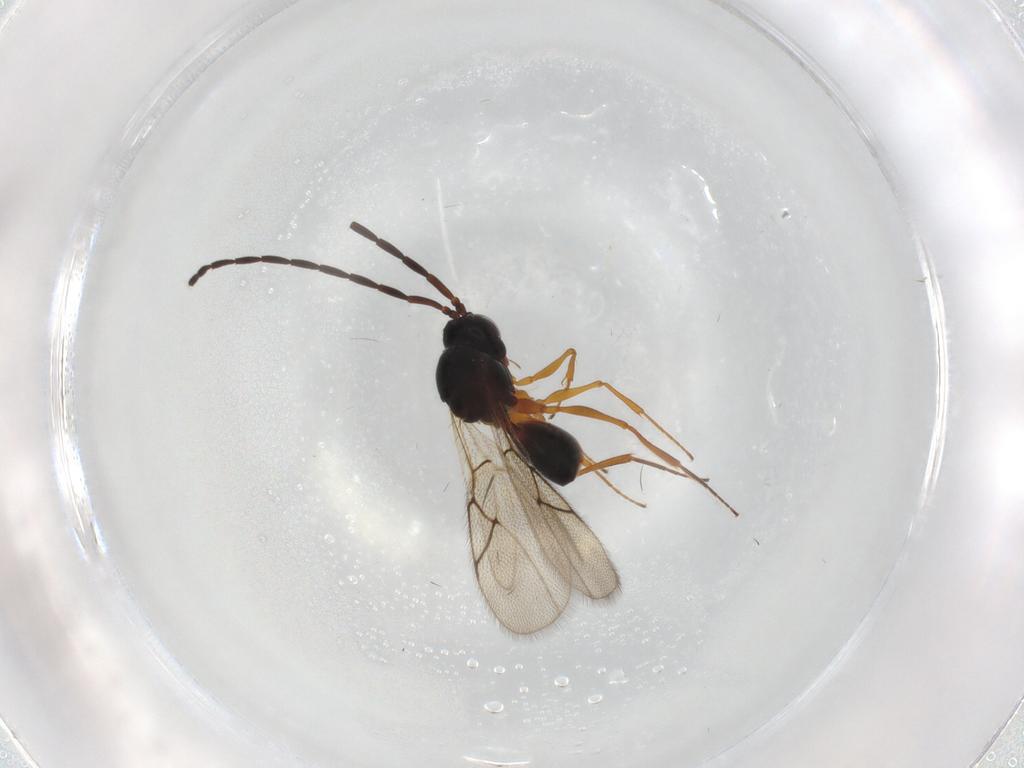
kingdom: Animalia
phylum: Arthropoda
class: Insecta
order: Hymenoptera
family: Figitidae
